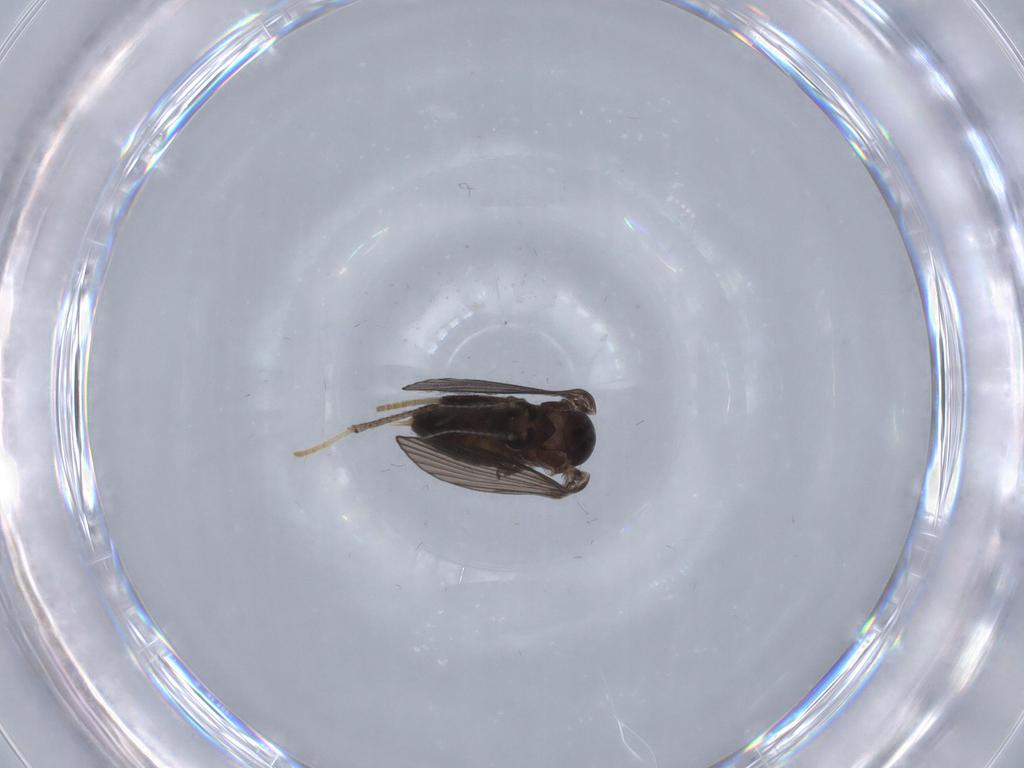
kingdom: Animalia
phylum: Arthropoda
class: Insecta
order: Diptera
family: Psychodidae
